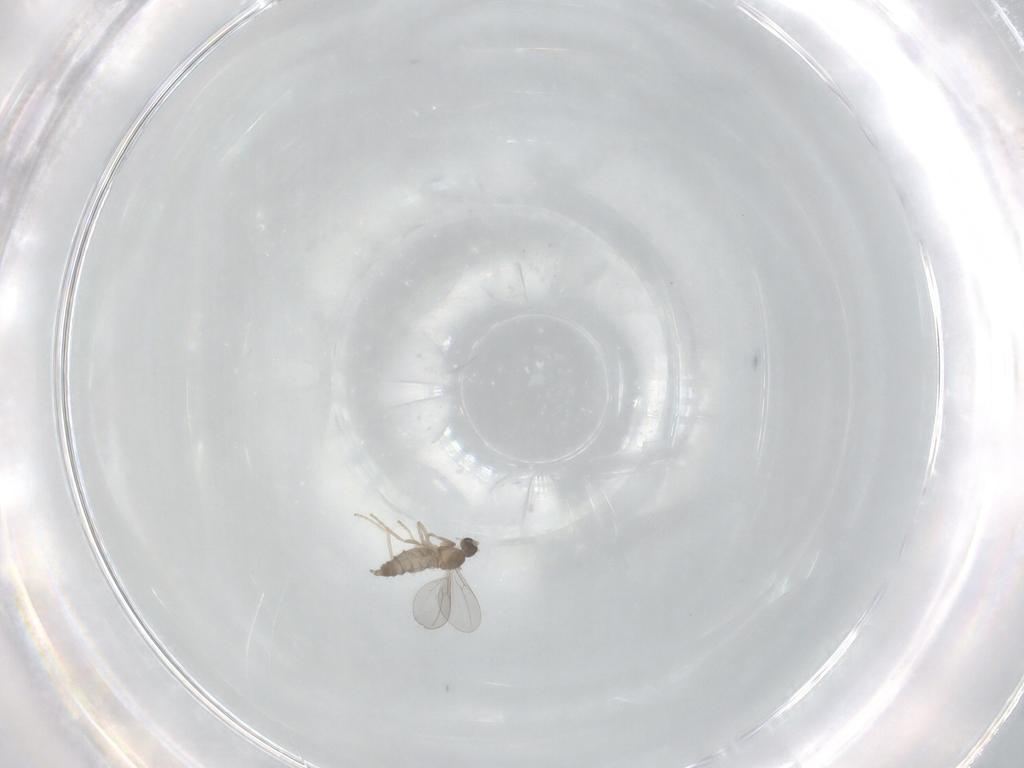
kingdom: Animalia
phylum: Arthropoda
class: Insecta
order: Diptera
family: Cecidomyiidae
